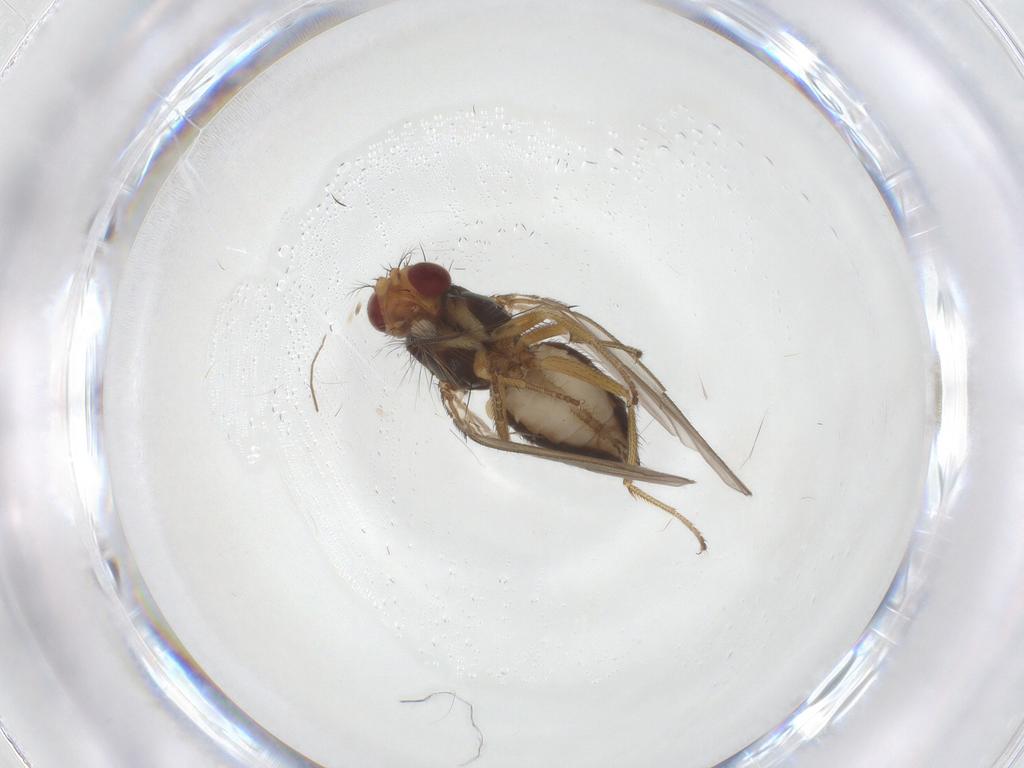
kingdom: Animalia
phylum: Arthropoda
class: Insecta
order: Diptera
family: Drosophilidae
